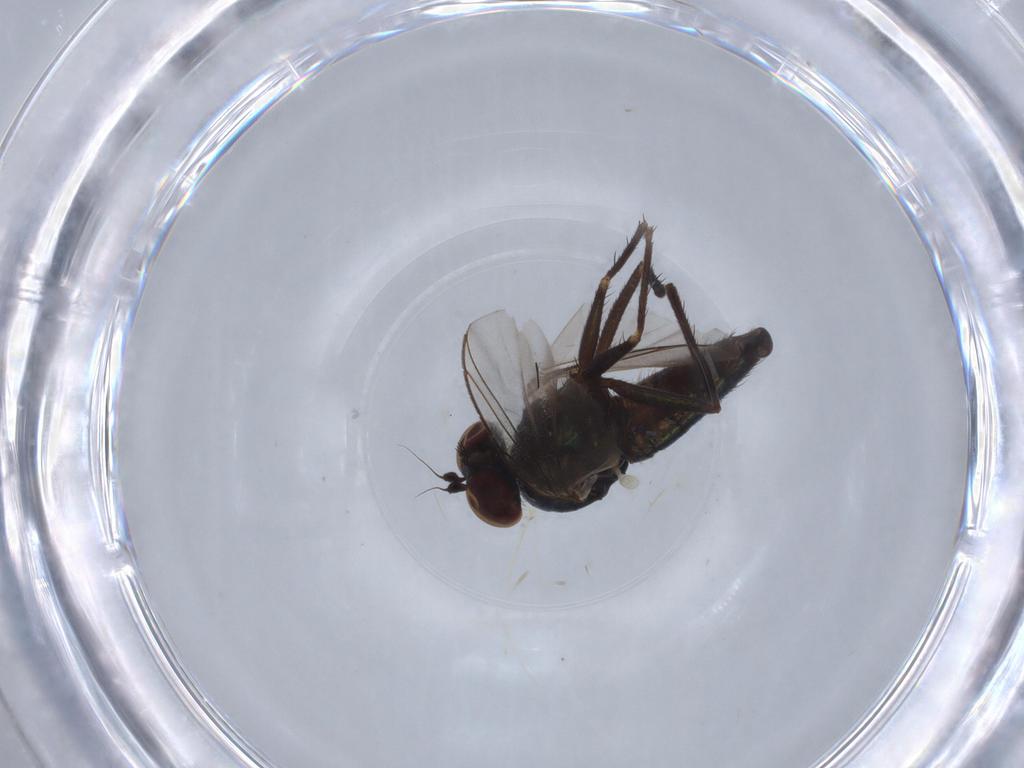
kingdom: Animalia
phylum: Arthropoda
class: Insecta
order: Diptera
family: Dolichopodidae
